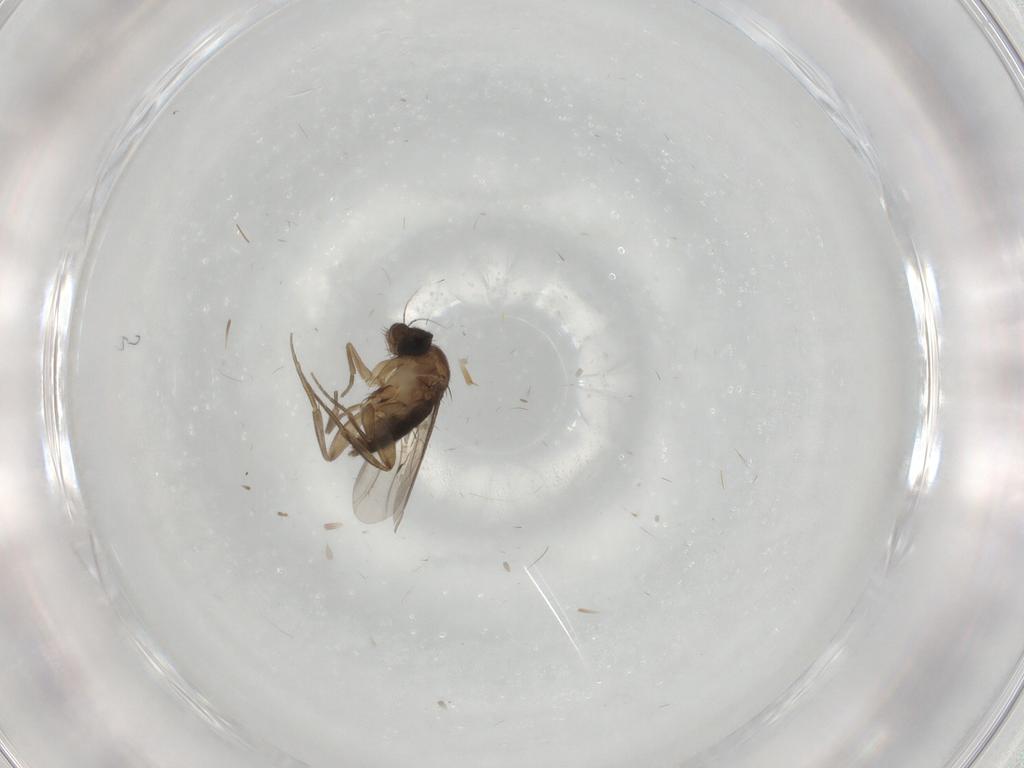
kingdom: Animalia
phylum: Arthropoda
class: Insecta
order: Diptera
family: Phoridae
